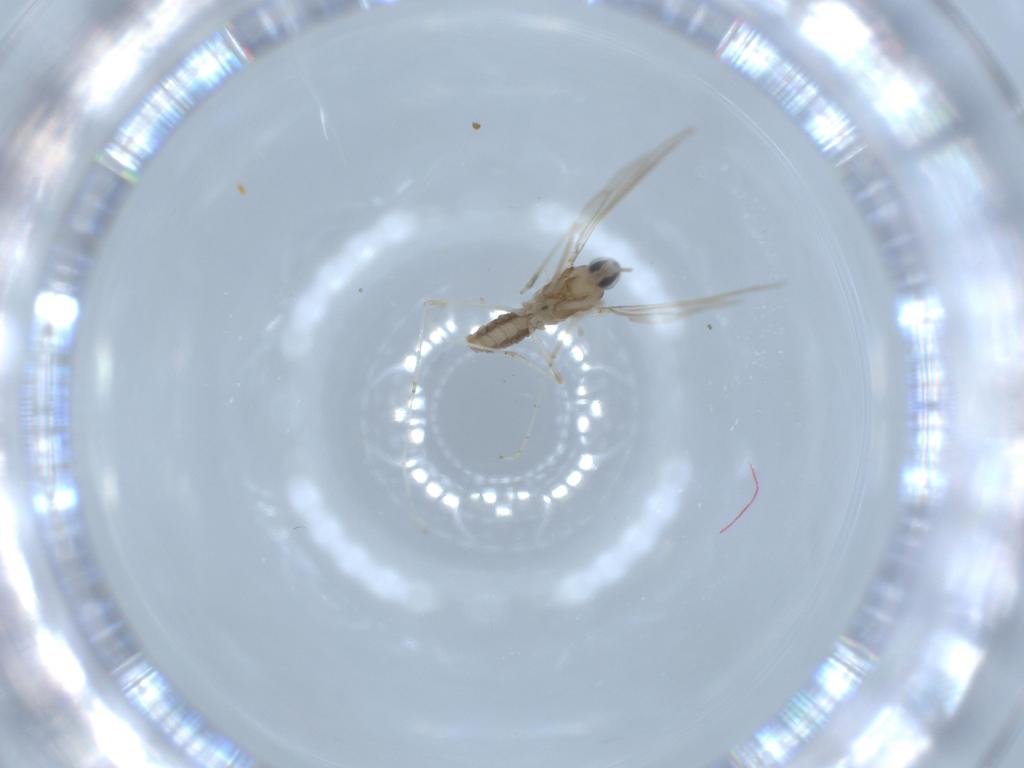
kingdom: Animalia
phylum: Arthropoda
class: Insecta
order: Diptera
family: Cecidomyiidae
